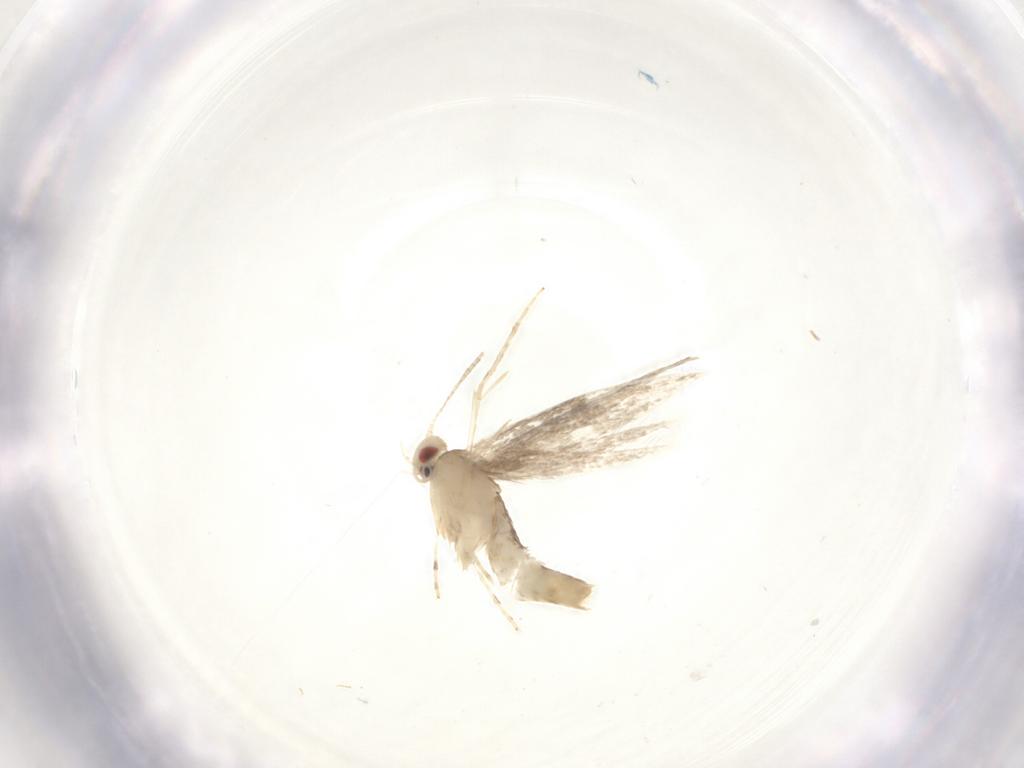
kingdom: Animalia
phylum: Arthropoda
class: Insecta
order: Lepidoptera
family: Gracillariidae
